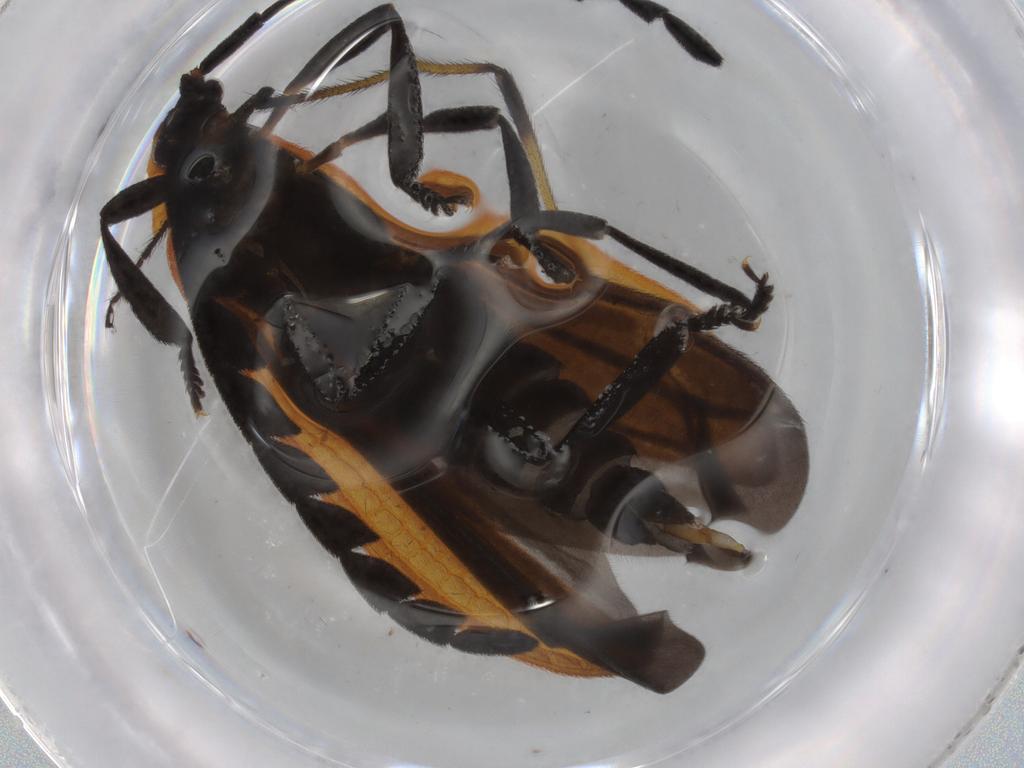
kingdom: Animalia
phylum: Arthropoda
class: Insecta
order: Coleoptera
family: Lycidae
